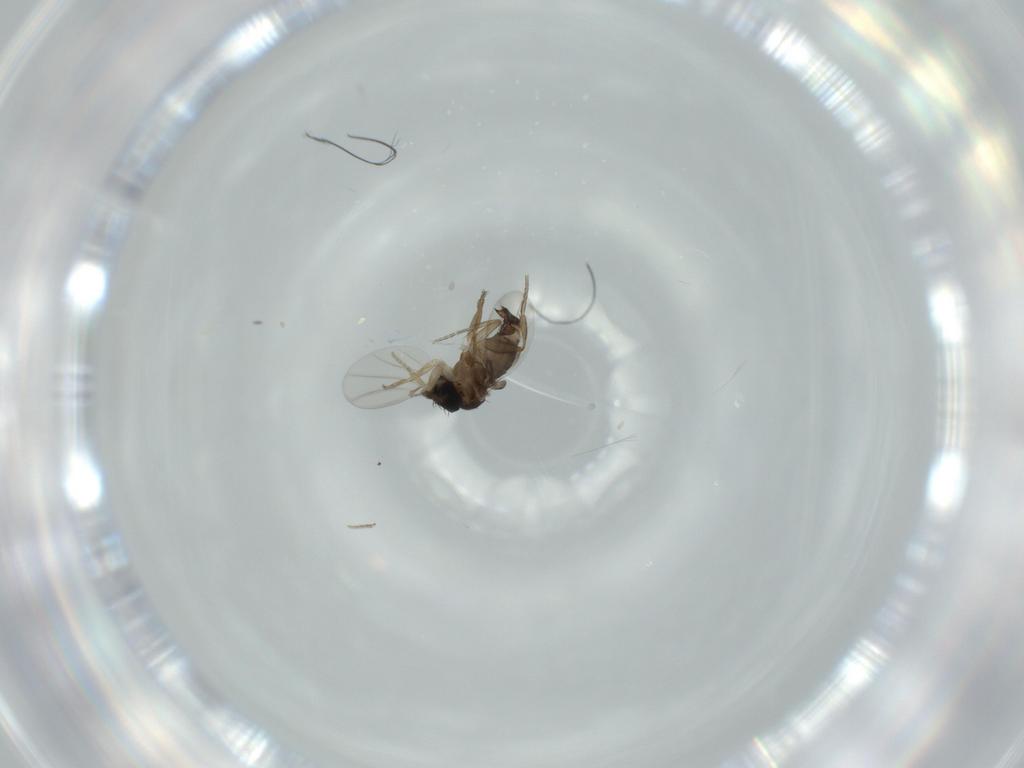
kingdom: Animalia
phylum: Arthropoda
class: Insecta
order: Diptera
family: Phoridae
